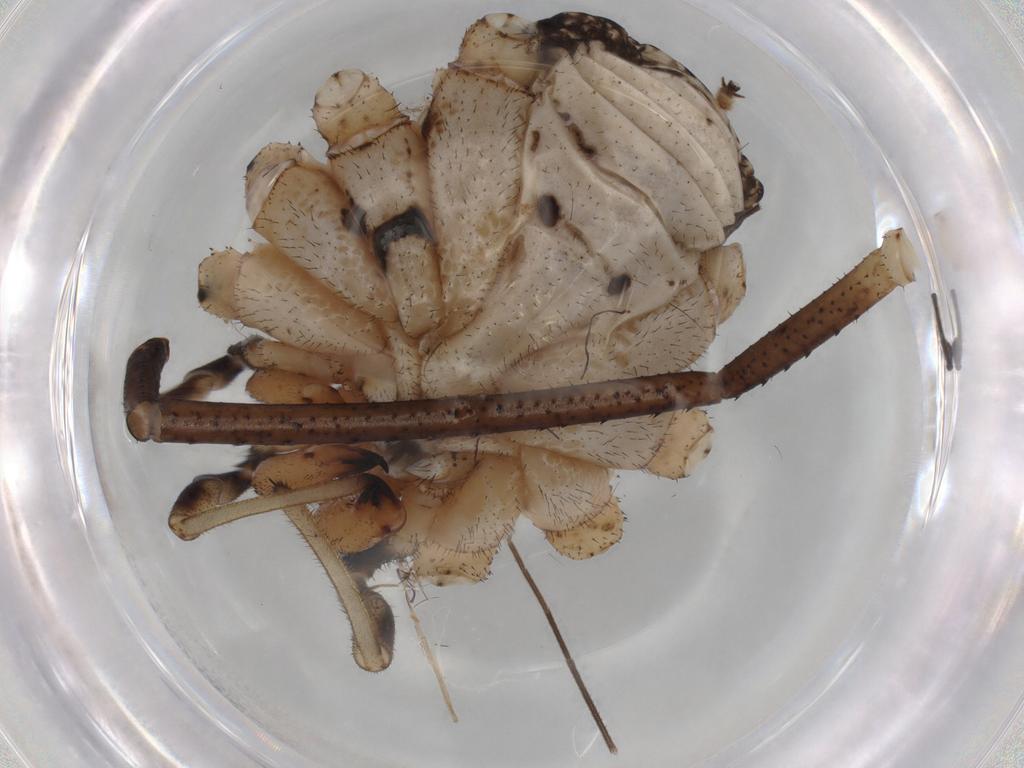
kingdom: Animalia
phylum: Arthropoda
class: Arachnida
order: Opiliones
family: Phalangiidae
